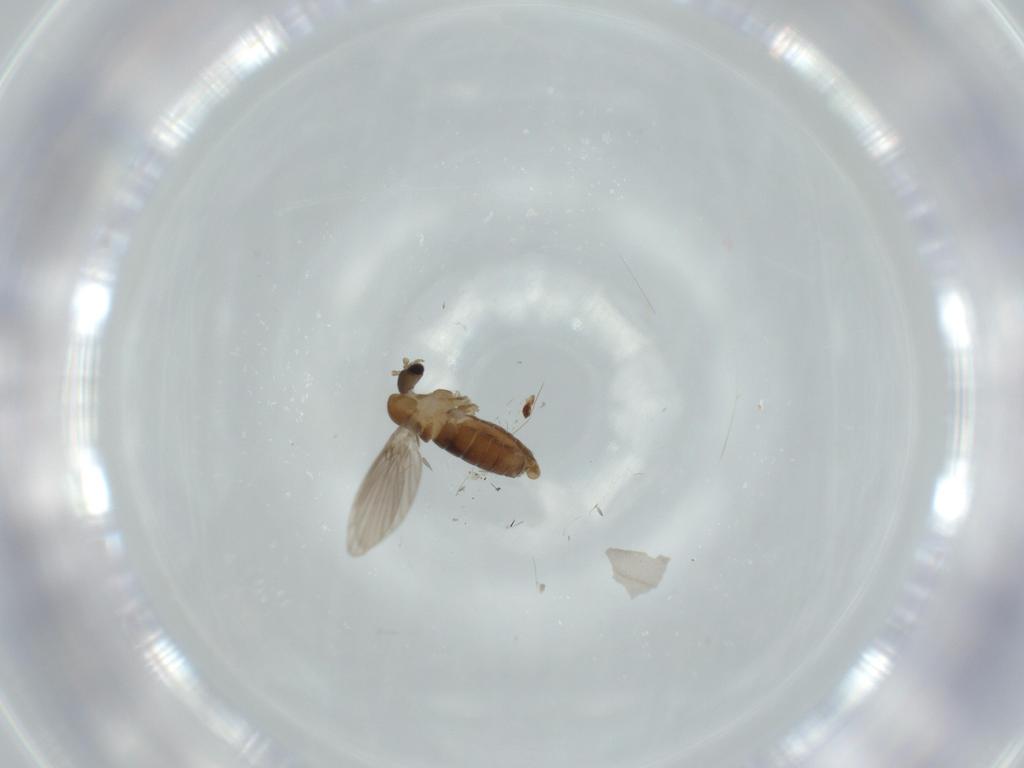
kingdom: Animalia
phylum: Arthropoda
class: Insecta
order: Diptera
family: Psychodidae
